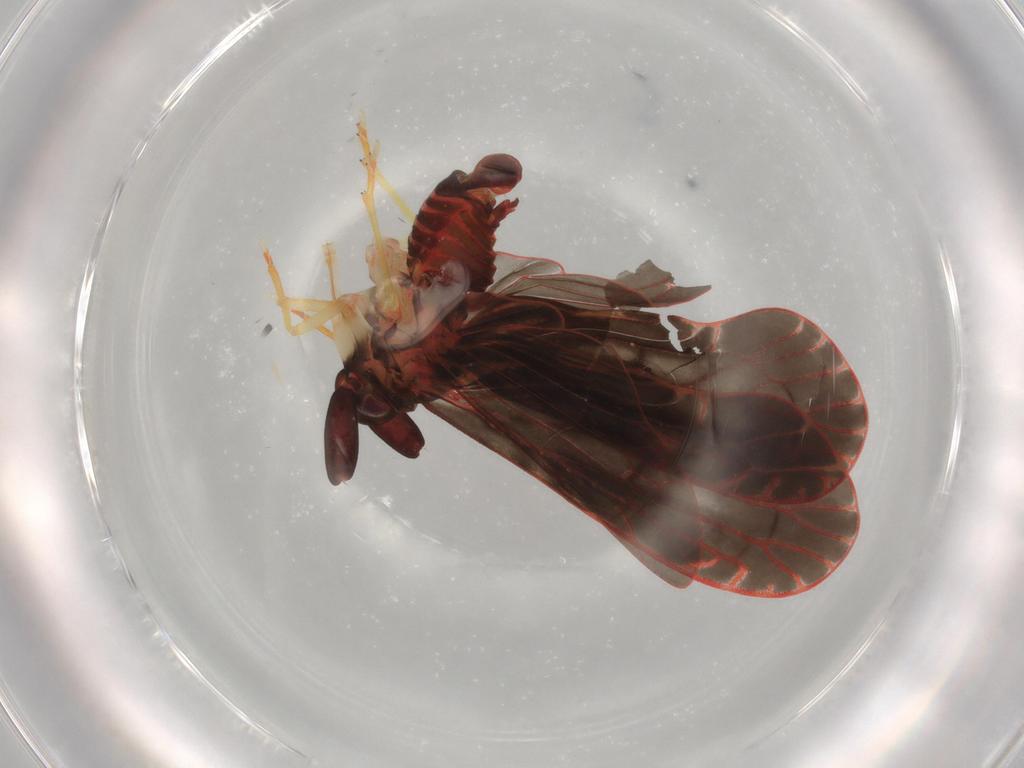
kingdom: Animalia
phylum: Arthropoda
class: Insecta
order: Hemiptera
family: Derbidae
